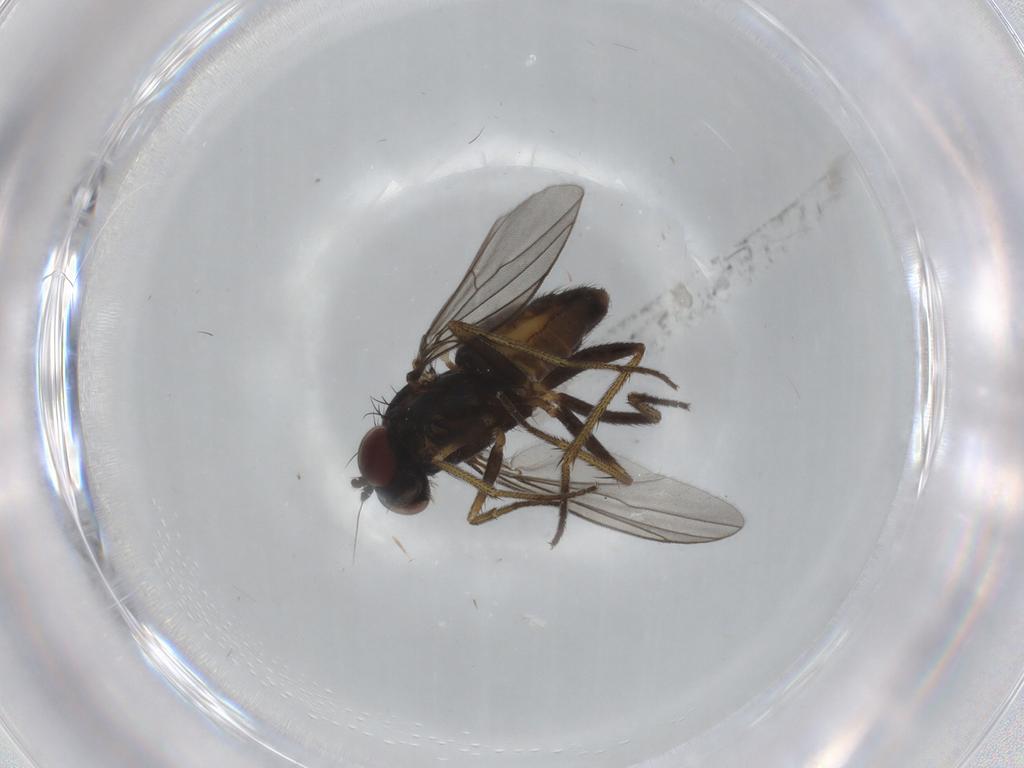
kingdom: Animalia
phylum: Arthropoda
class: Insecta
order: Diptera
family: Cecidomyiidae
